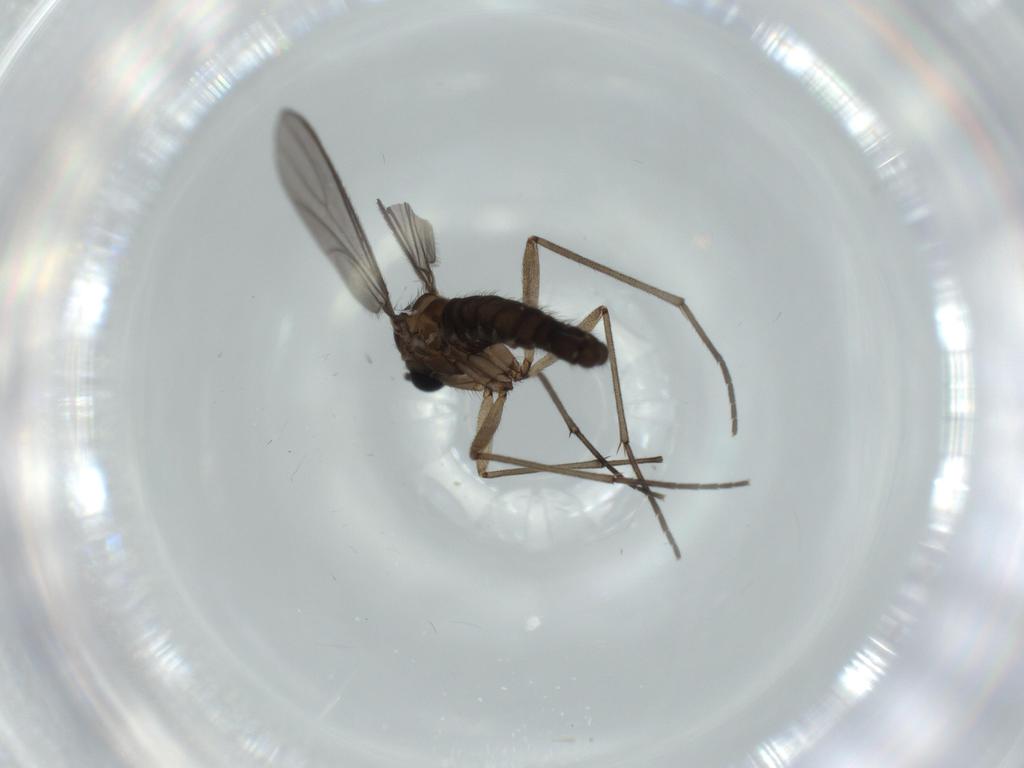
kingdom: Animalia
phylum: Arthropoda
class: Insecta
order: Diptera
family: Sciaridae
